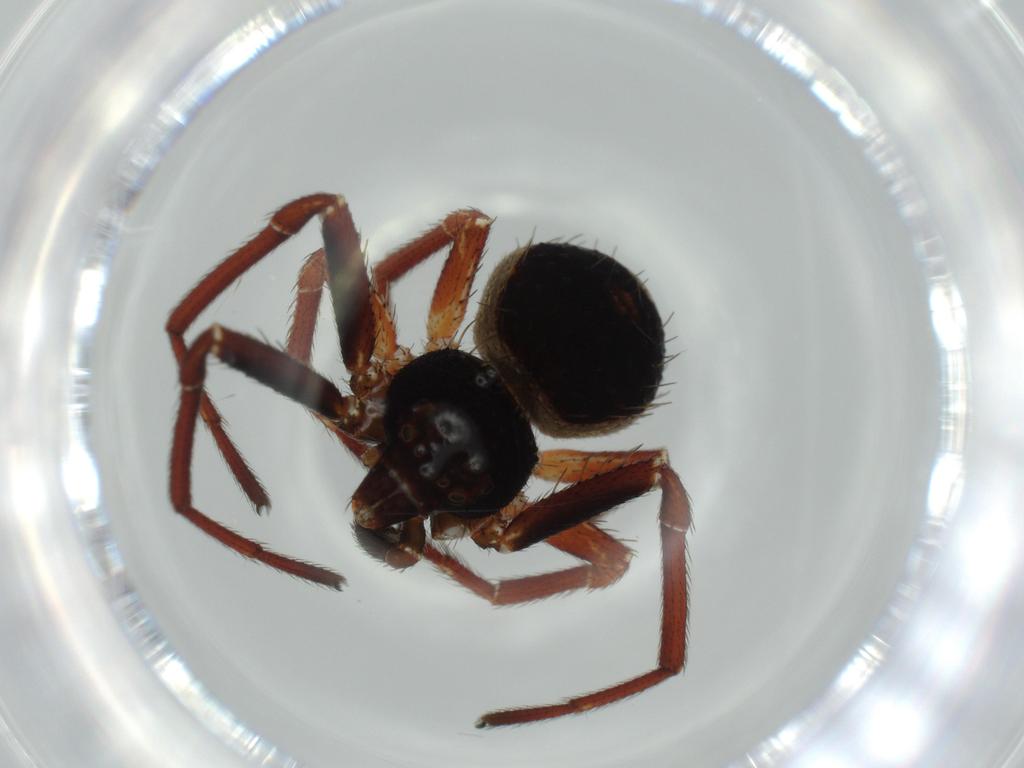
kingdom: Animalia
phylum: Arthropoda
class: Arachnida
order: Araneae
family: Thomisidae
